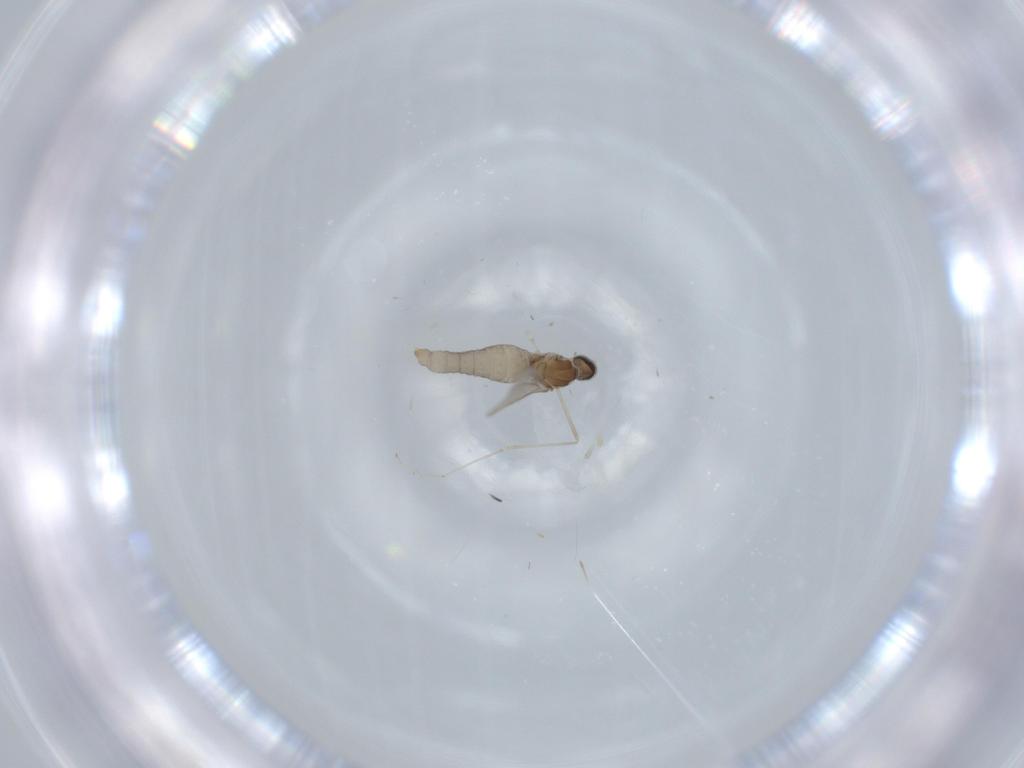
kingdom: Animalia
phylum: Arthropoda
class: Insecta
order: Diptera
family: Cecidomyiidae
